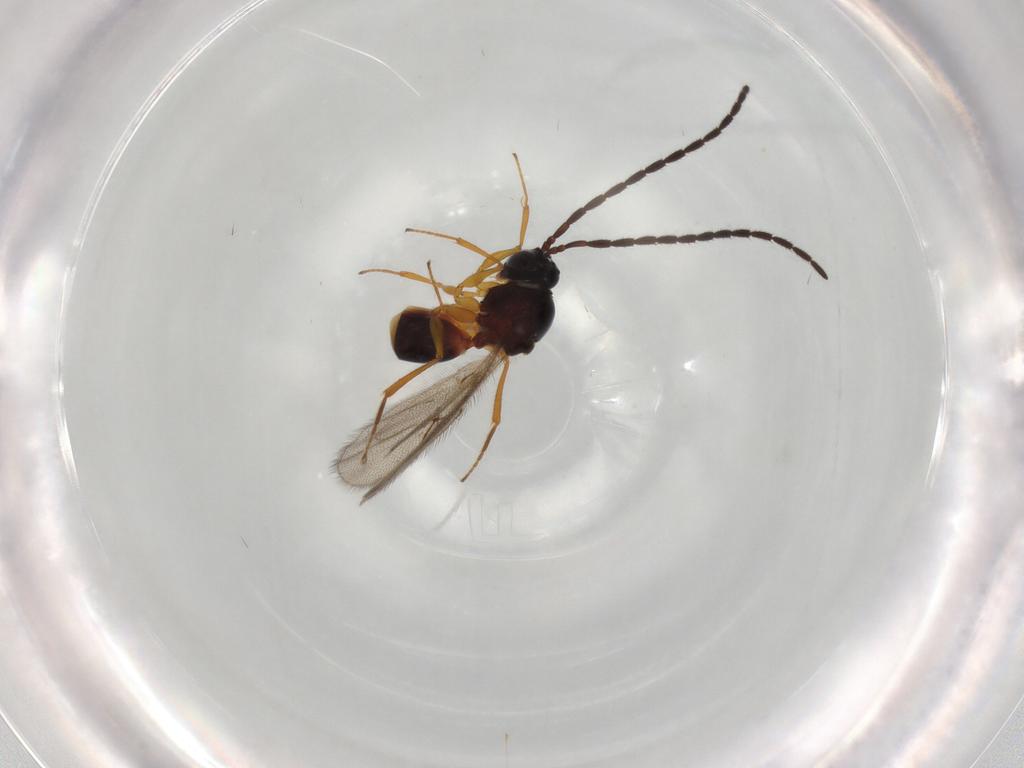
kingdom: Animalia
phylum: Arthropoda
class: Insecta
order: Hymenoptera
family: Figitidae
